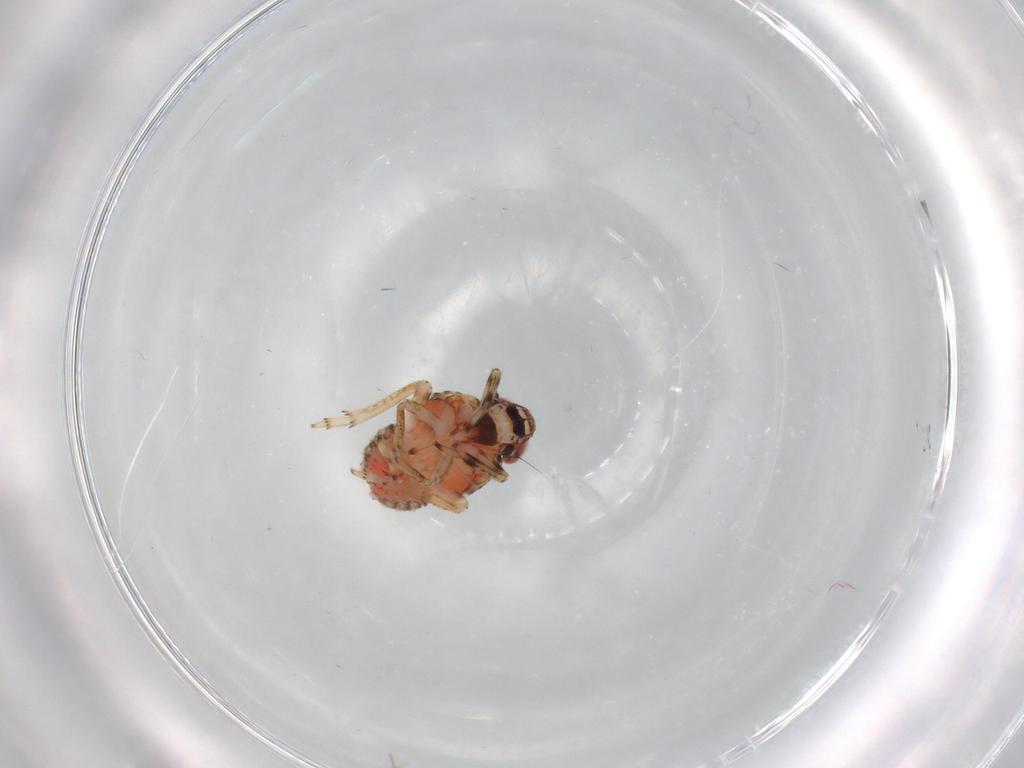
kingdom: Animalia
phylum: Arthropoda
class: Insecta
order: Hemiptera
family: Issidae
